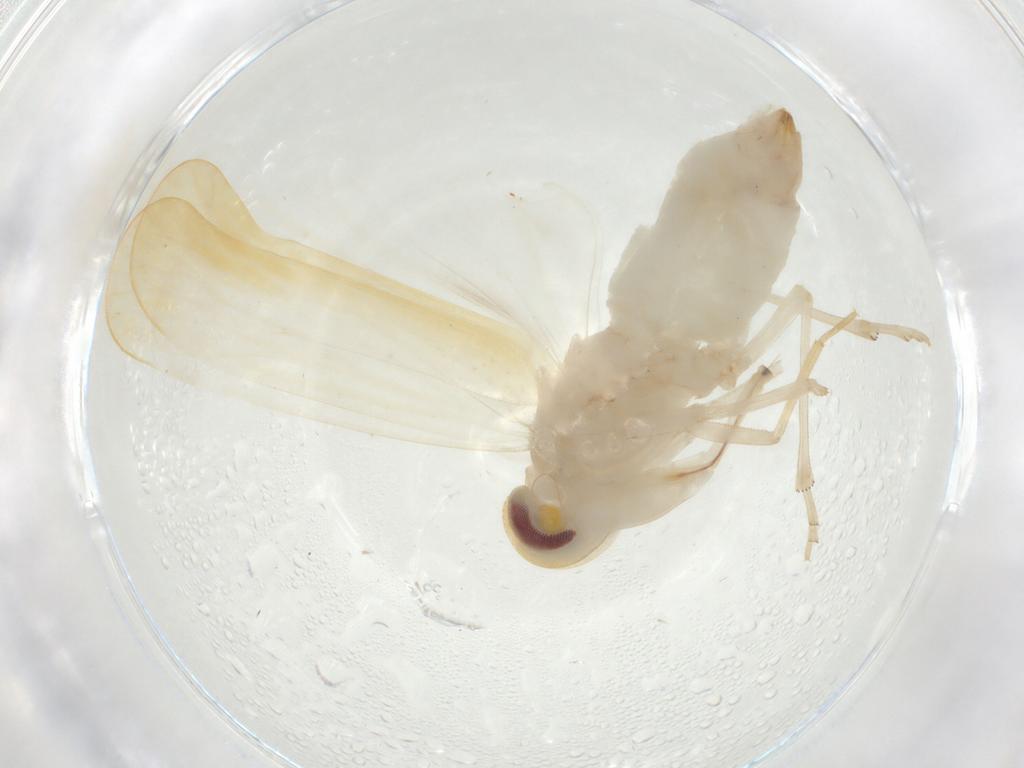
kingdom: Animalia
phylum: Arthropoda
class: Insecta
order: Hemiptera
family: Derbidae
